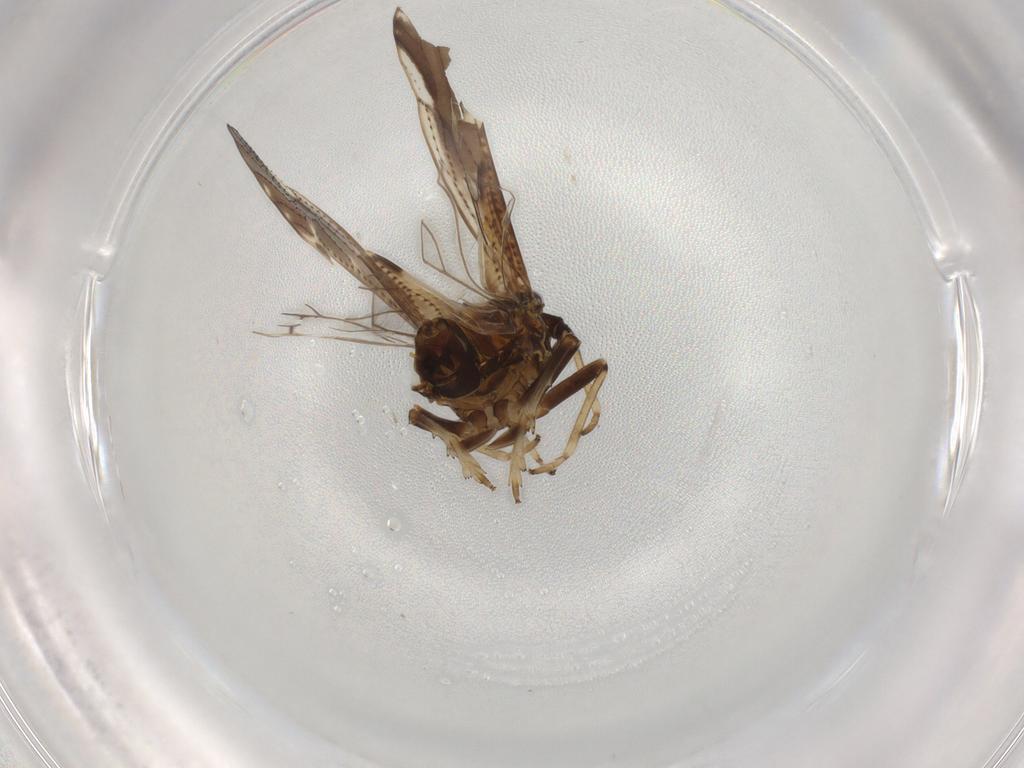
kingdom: Animalia
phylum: Arthropoda
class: Insecta
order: Hemiptera
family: Delphacidae
